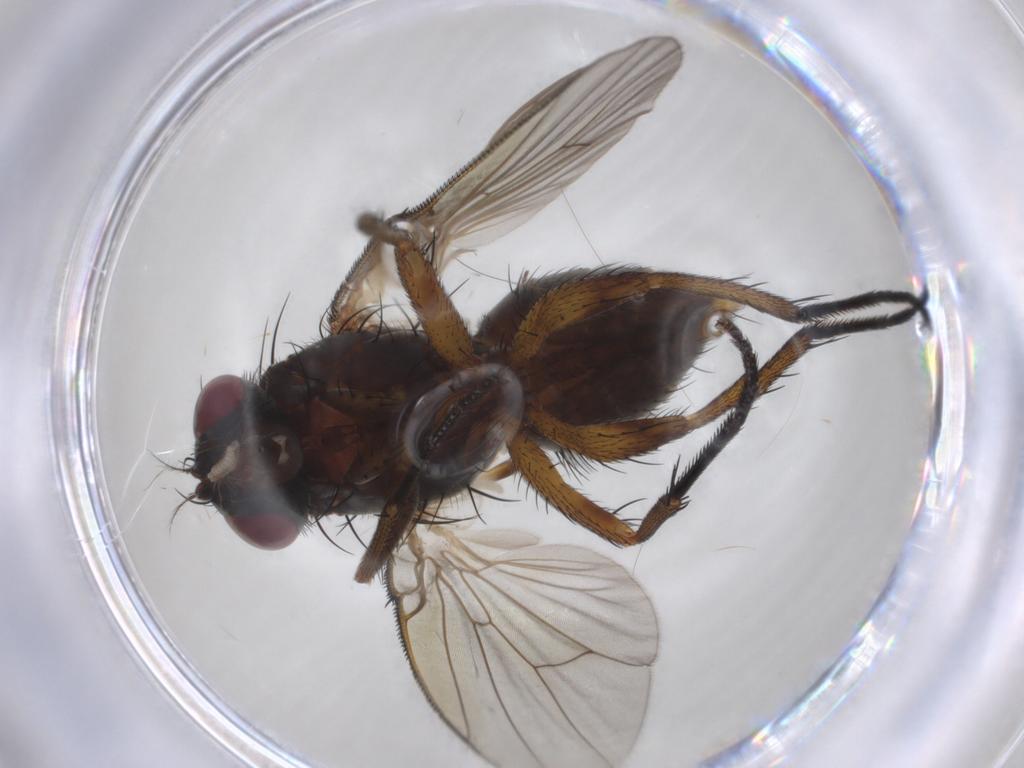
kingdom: Animalia
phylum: Arthropoda
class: Insecta
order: Diptera
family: Muscidae
